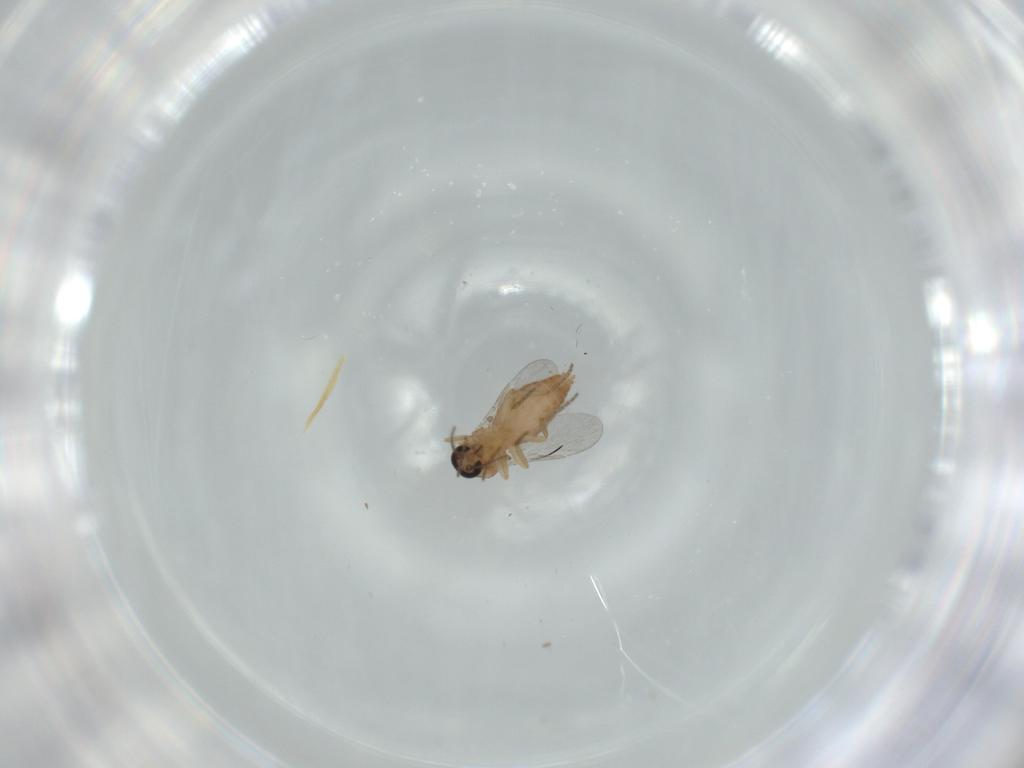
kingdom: Animalia
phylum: Arthropoda
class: Insecta
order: Diptera
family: Ceratopogonidae
